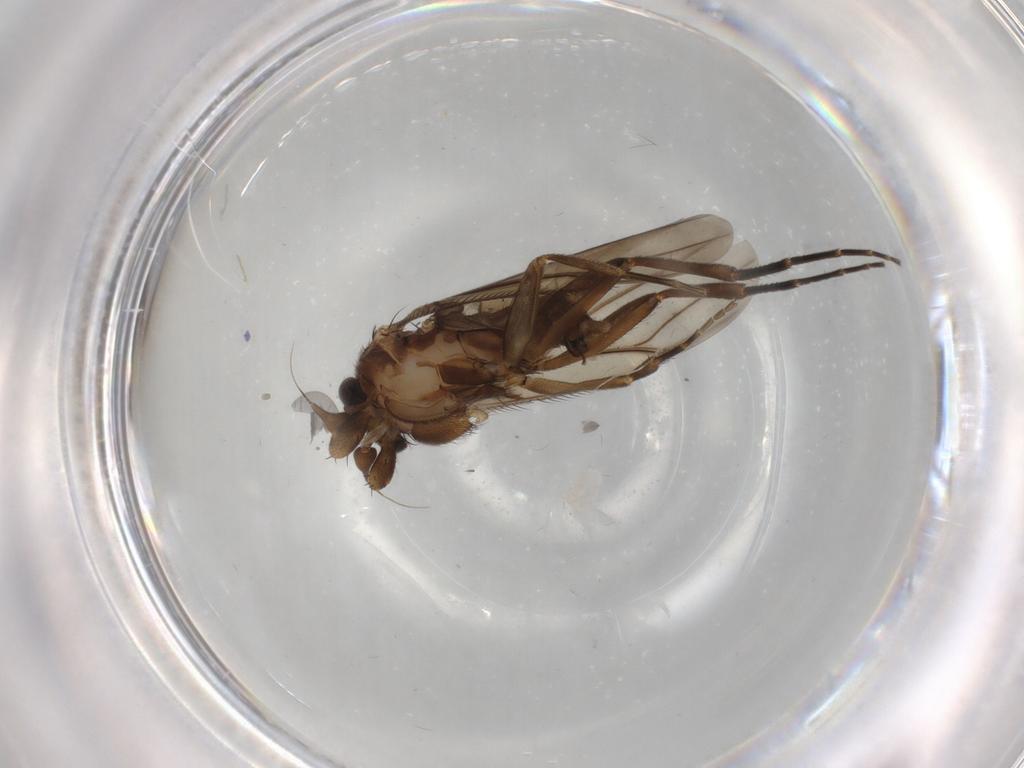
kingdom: Animalia
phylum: Arthropoda
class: Insecta
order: Diptera
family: Phoridae
